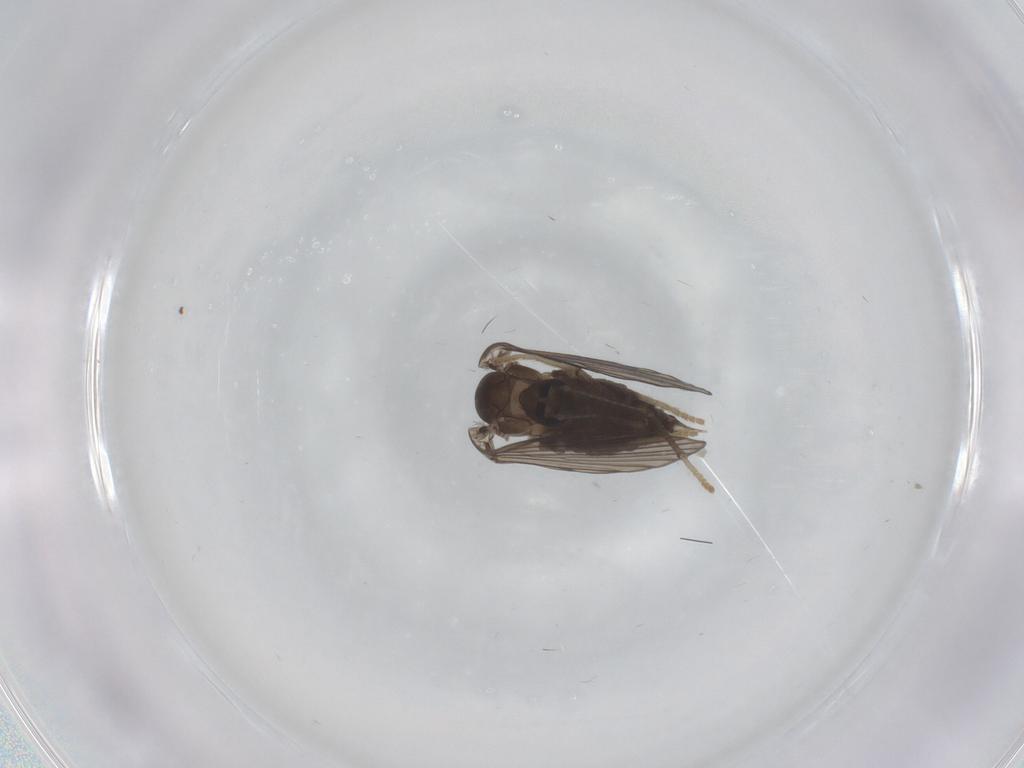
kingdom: Animalia
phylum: Arthropoda
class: Insecta
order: Diptera
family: Psychodidae
